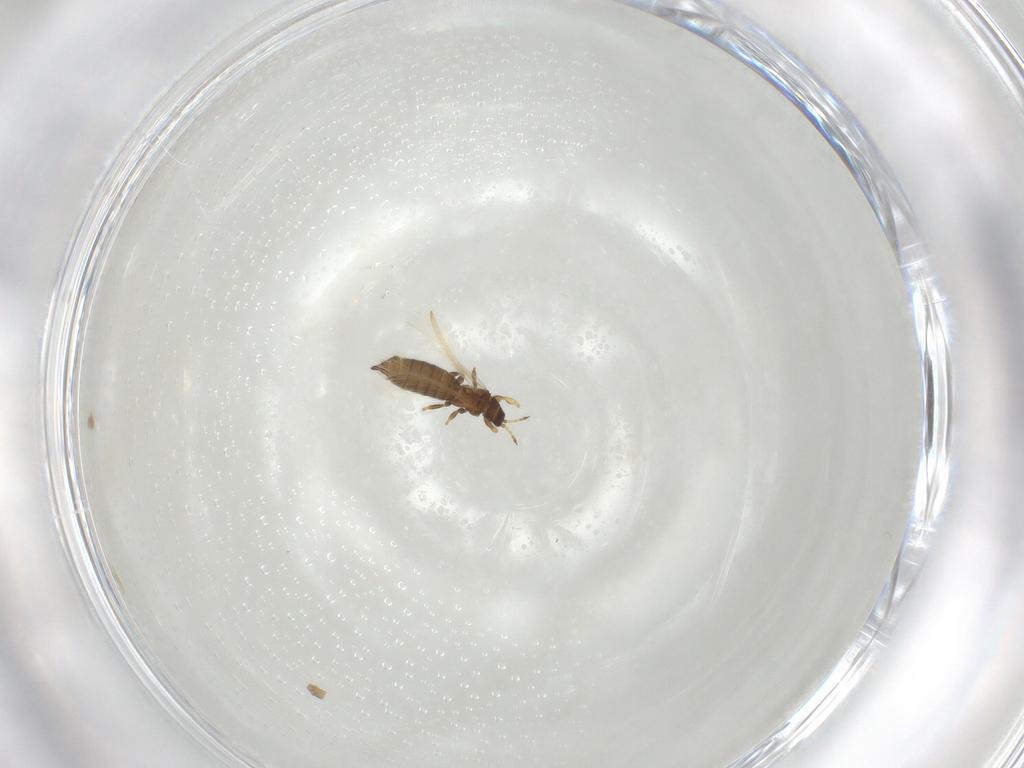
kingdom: Animalia
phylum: Arthropoda
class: Insecta
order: Thysanoptera
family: Thripidae
